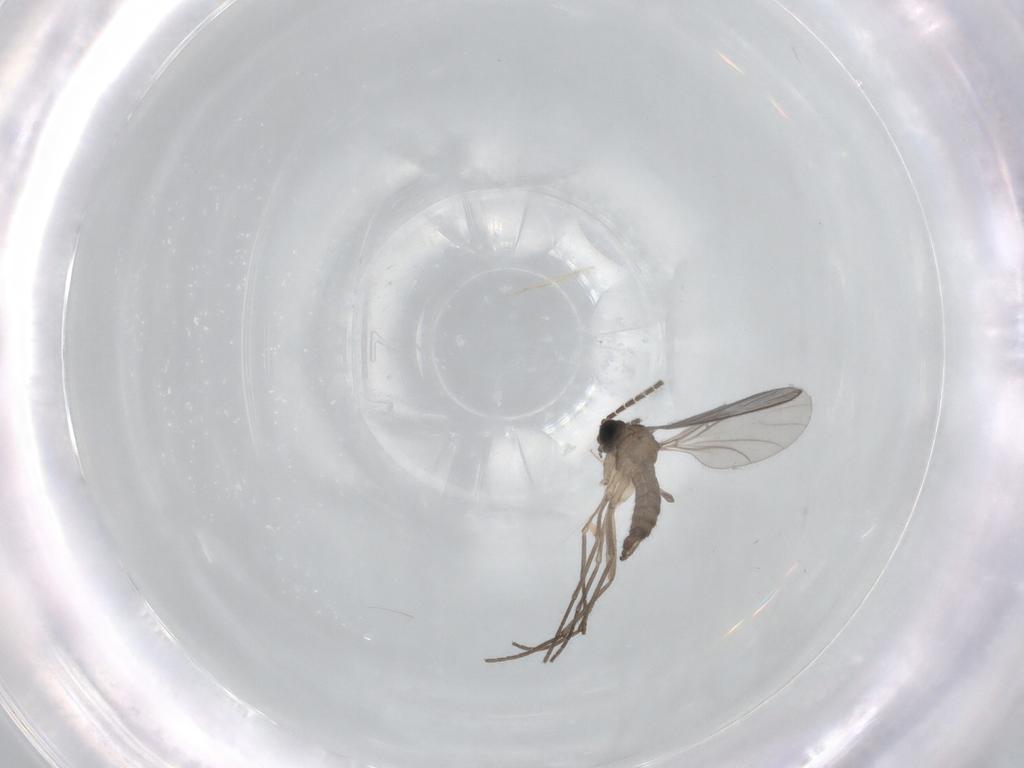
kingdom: Animalia
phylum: Arthropoda
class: Insecta
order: Diptera
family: Sciaridae
